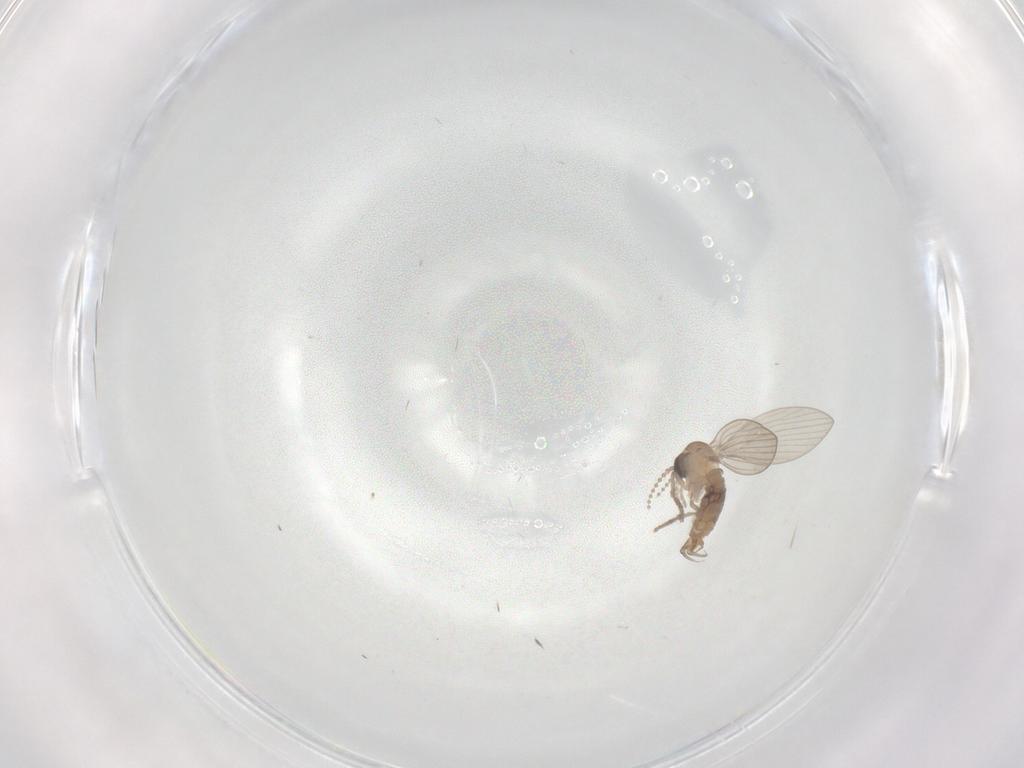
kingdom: Animalia
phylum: Arthropoda
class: Insecta
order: Diptera
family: Psychodidae
